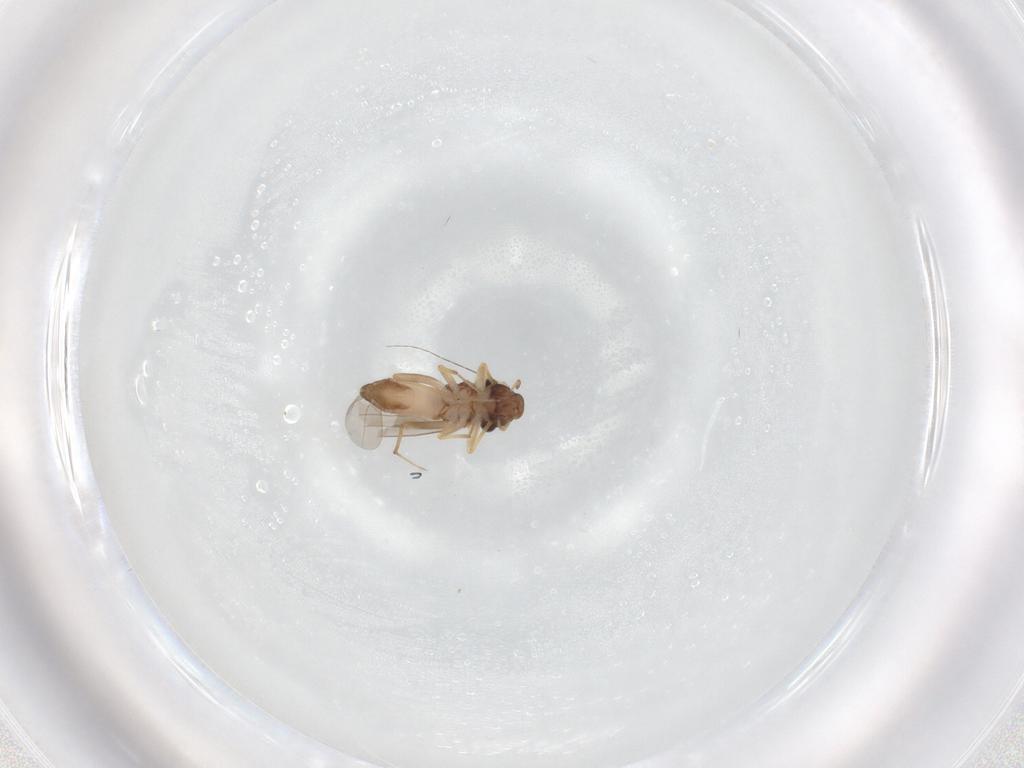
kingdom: Animalia
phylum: Arthropoda
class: Insecta
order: Psocodea
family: Lepidopsocidae
